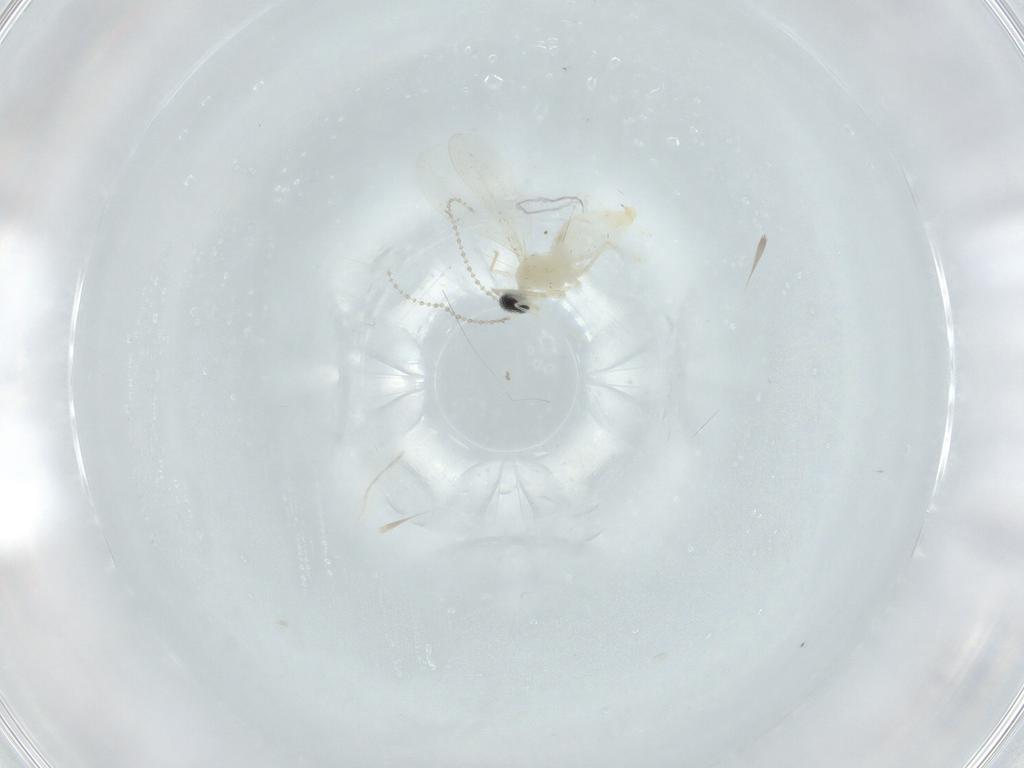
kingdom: Animalia
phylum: Arthropoda
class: Insecta
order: Diptera
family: Cecidomyiidae
